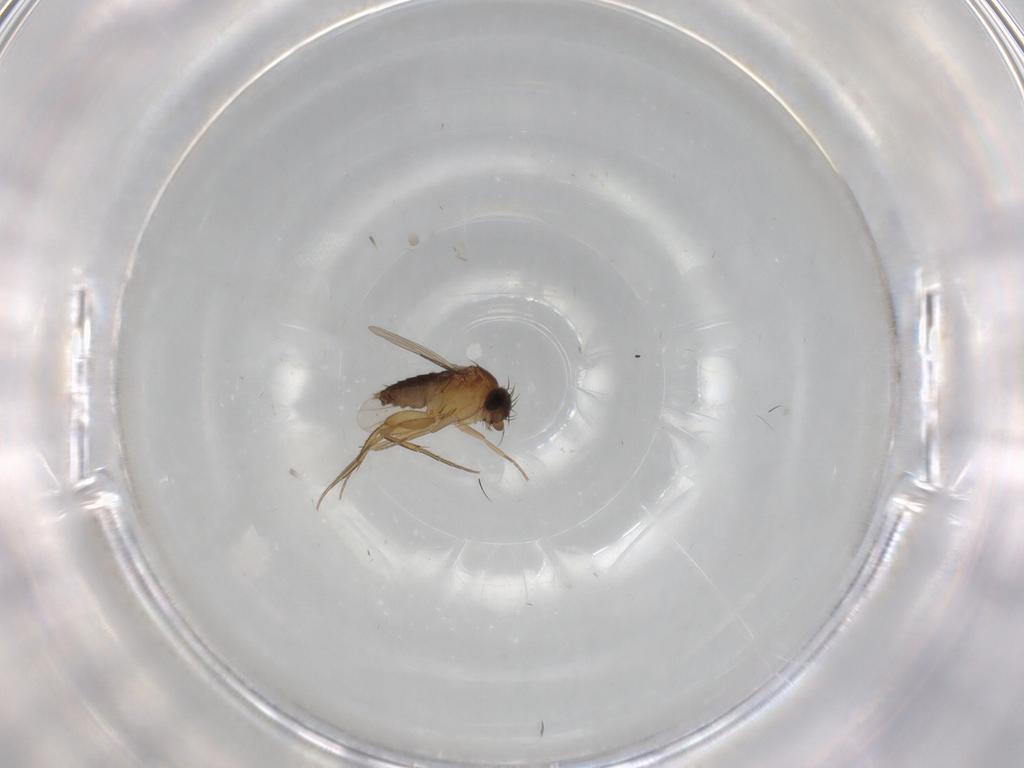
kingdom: Animalia
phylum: Arthropoda
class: Insecta
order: Diptera
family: Phoridae
